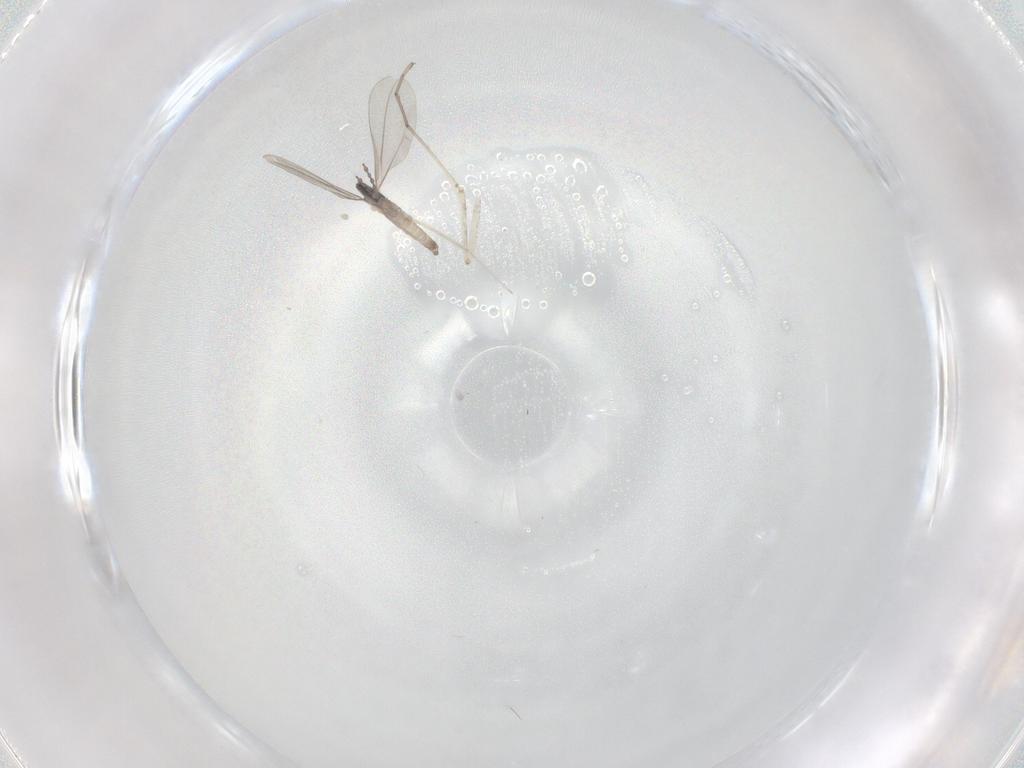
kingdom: Animalia
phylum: Arthropoda
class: Insecta
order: Diptera
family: Cecidomyiidae
